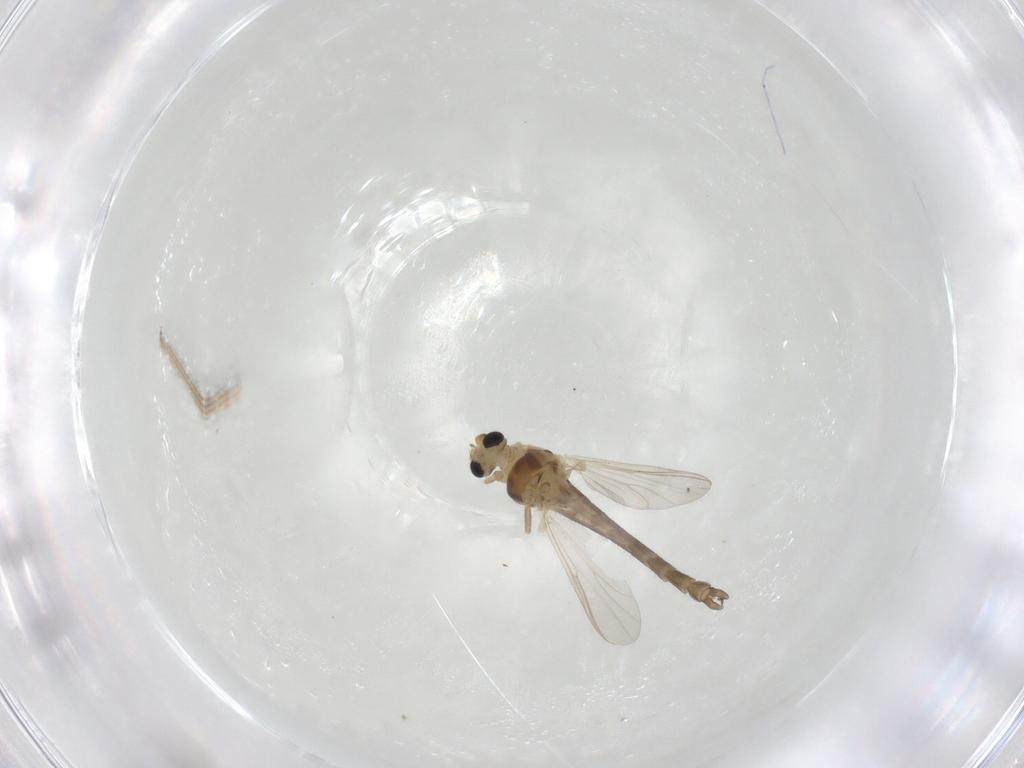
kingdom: Animalia
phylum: Arthropoda
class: Insecta
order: Diptera
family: Chironomidae
